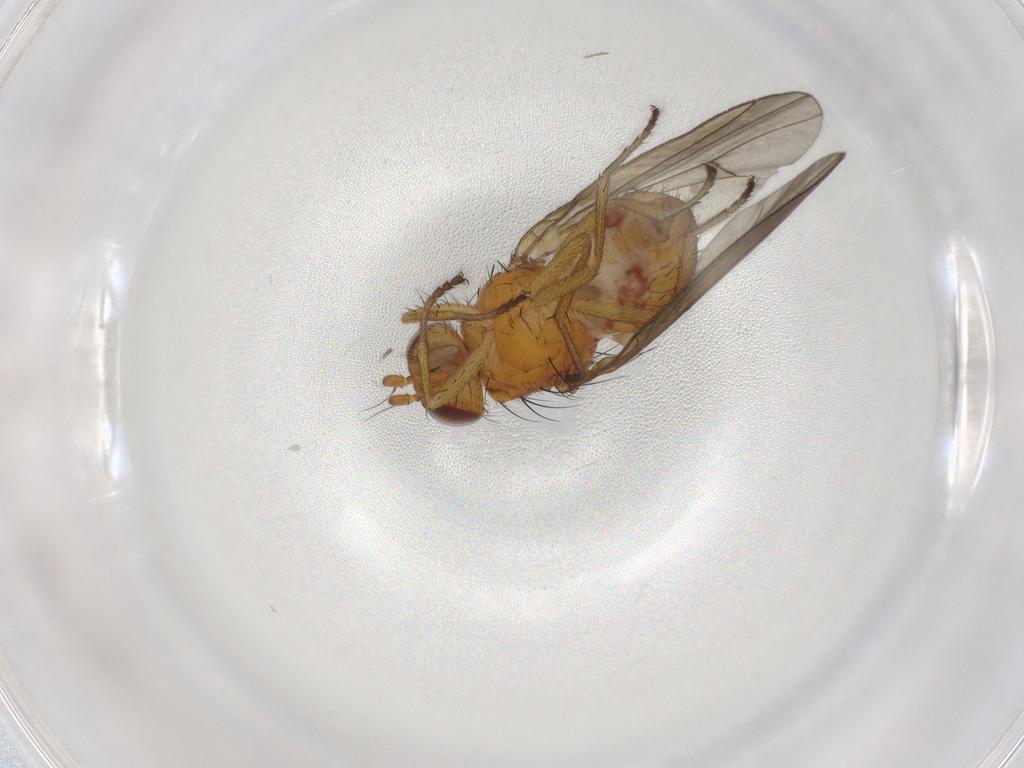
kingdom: Animalia
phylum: Arthropoda
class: Insecta
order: Diptera
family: Chironomidae
